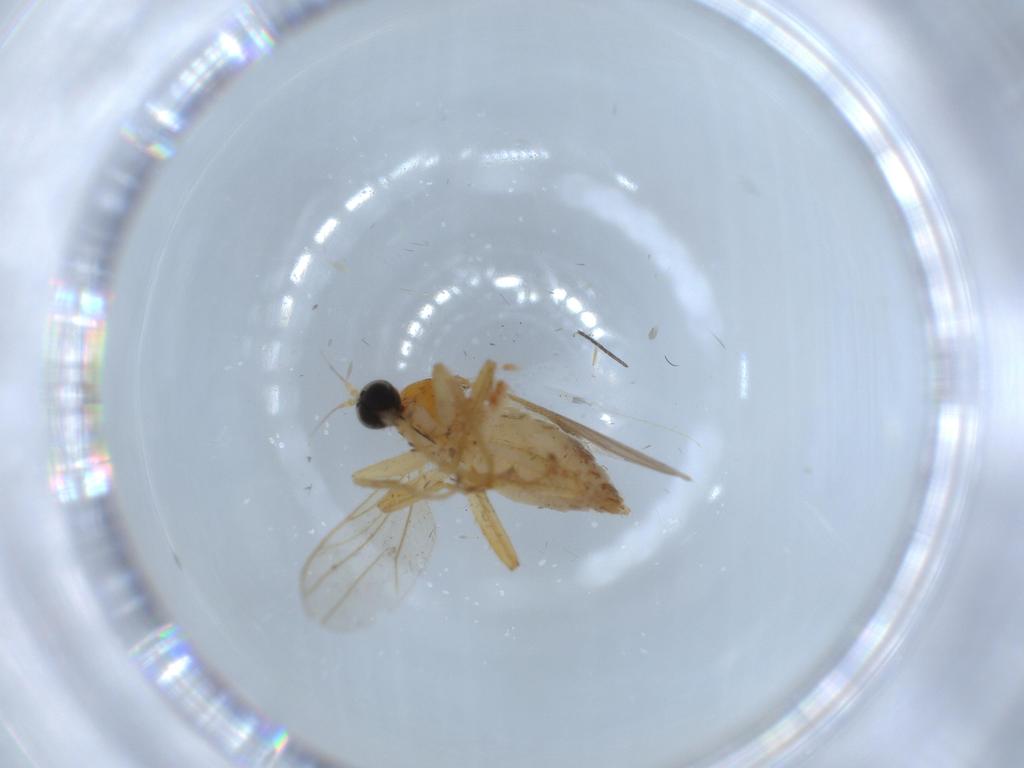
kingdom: Animalia
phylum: Arthropoda
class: Insecta
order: Diptera
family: Hybotidae
